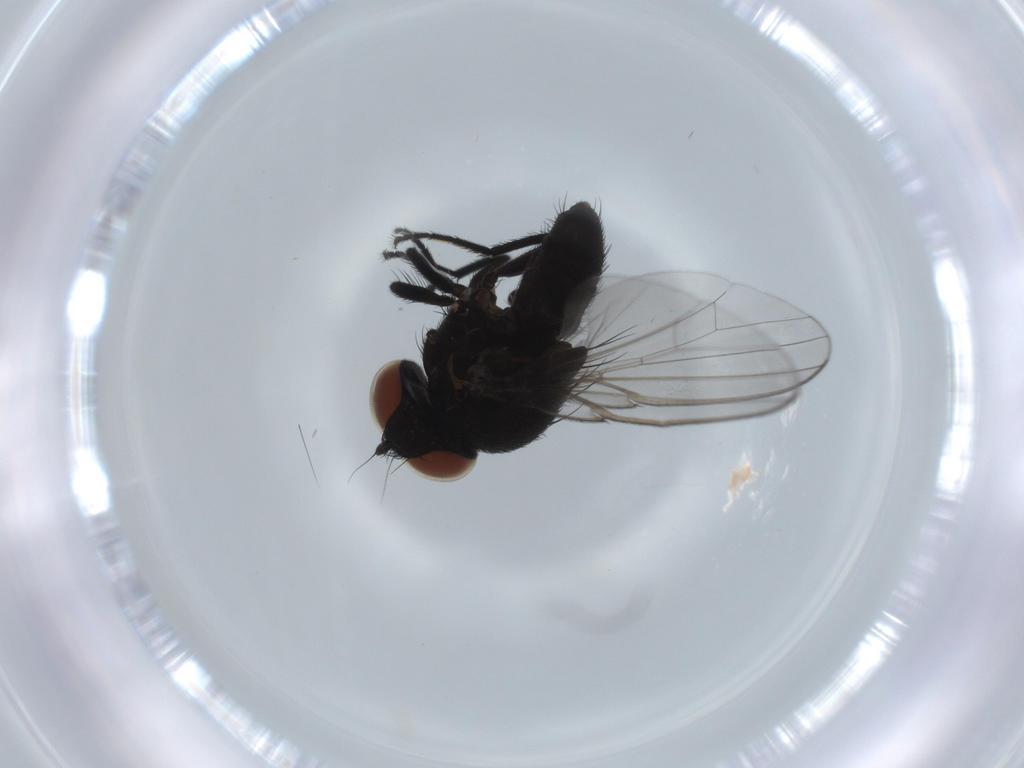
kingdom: Animalia
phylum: Arthropoda
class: Insecta
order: Diptera
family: Milichiidae
